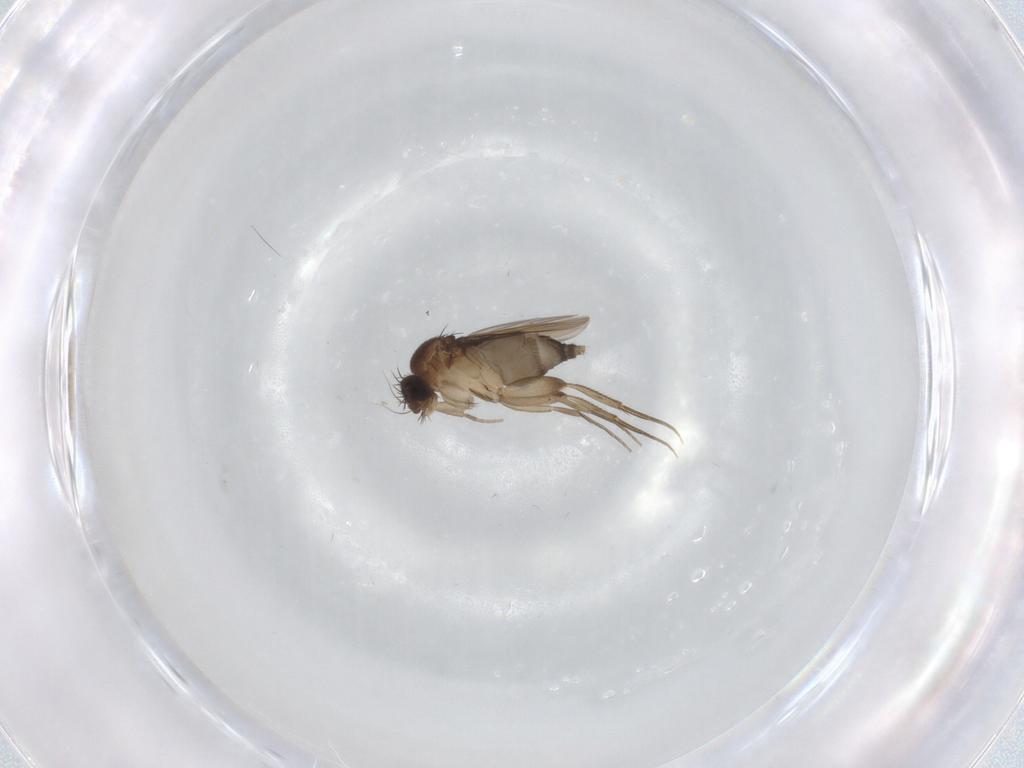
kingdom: Animalia
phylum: Arthropoda
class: Insecta
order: Diptera
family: Phoridae
